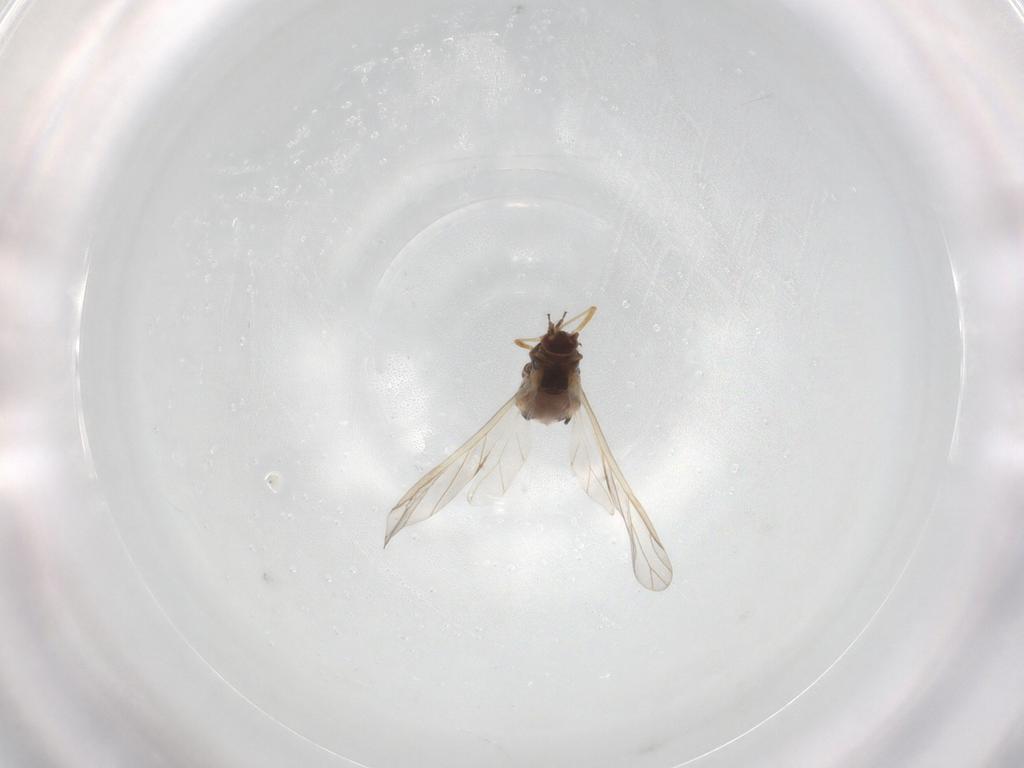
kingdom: Animalia
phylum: Arthropoda
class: Insecta
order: Hemiptera
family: Aphididae
